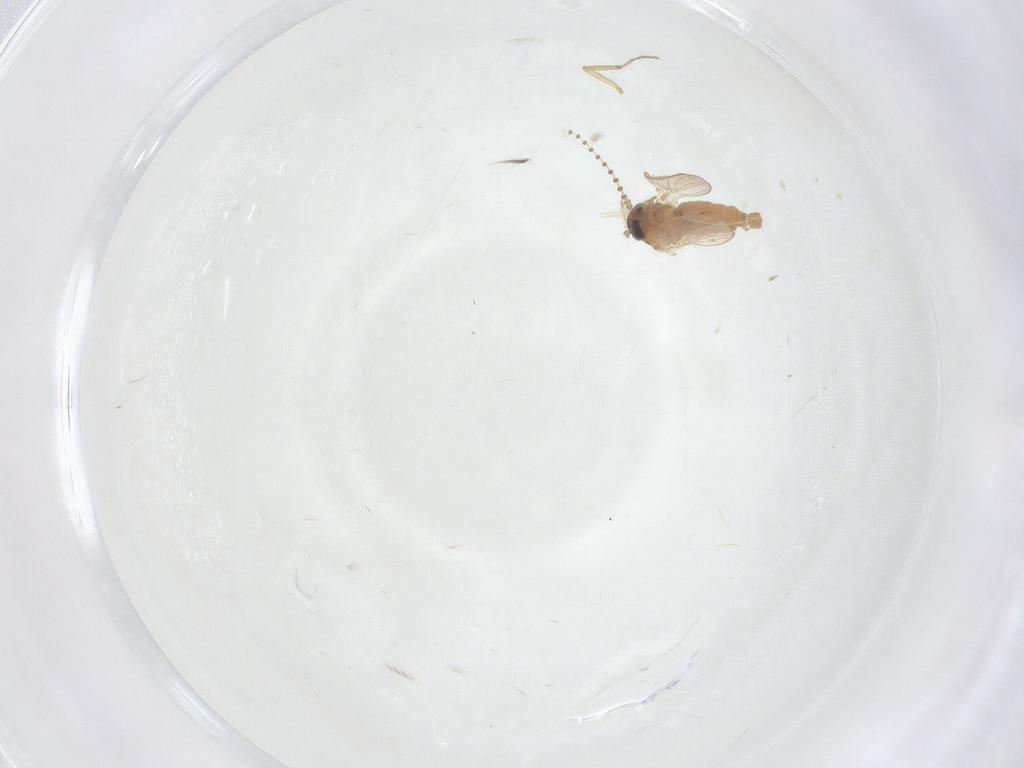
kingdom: Animalia
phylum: Arthropoda
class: Insecta
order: Diptera
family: Psychodidae
